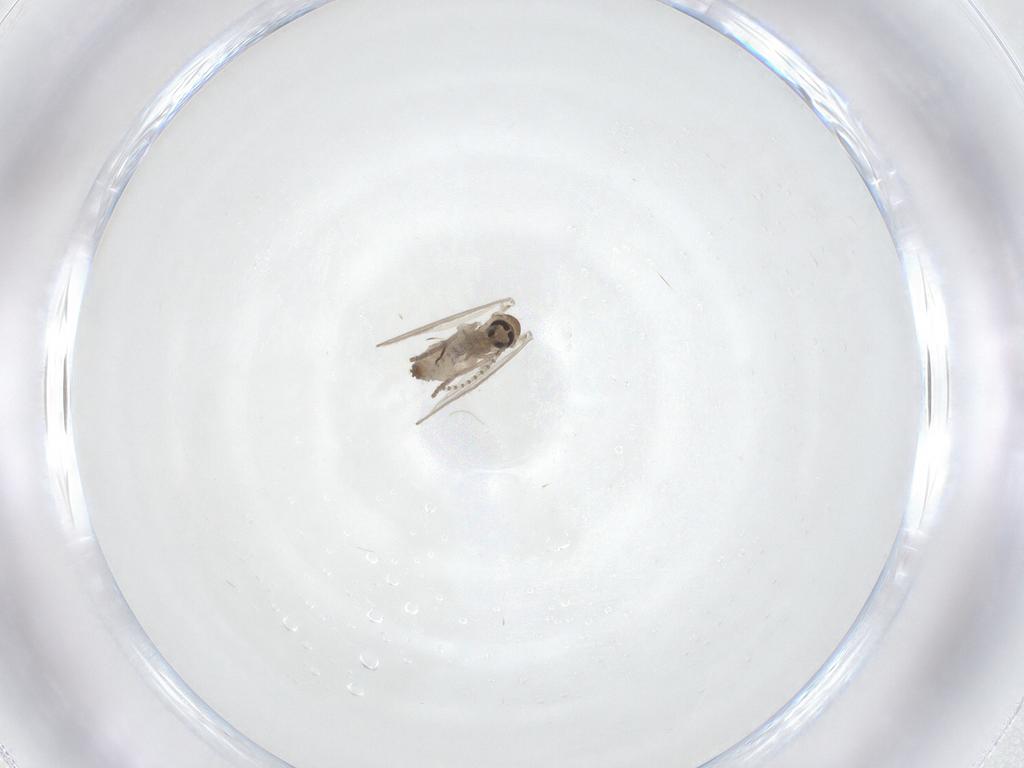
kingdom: Animalia
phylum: Arthropoda
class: Insecta
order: Diptera
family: Psychodidae
